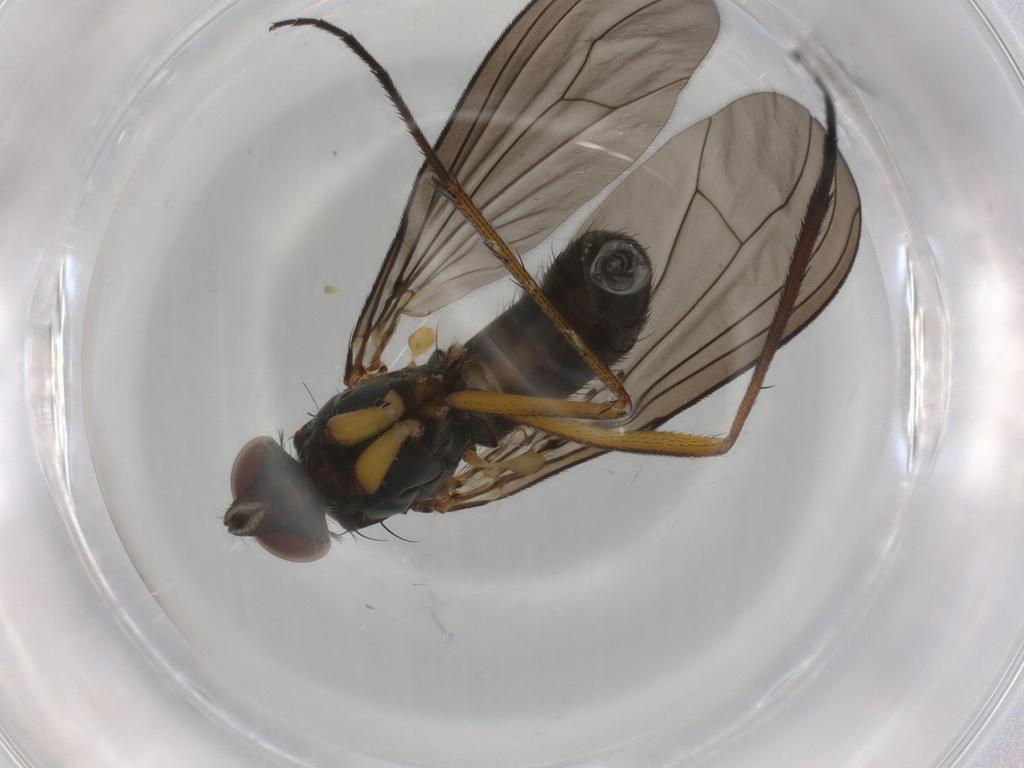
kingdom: Animalia
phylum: Arthropoda
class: Insecta
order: Diptera
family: Dolichopodidae
